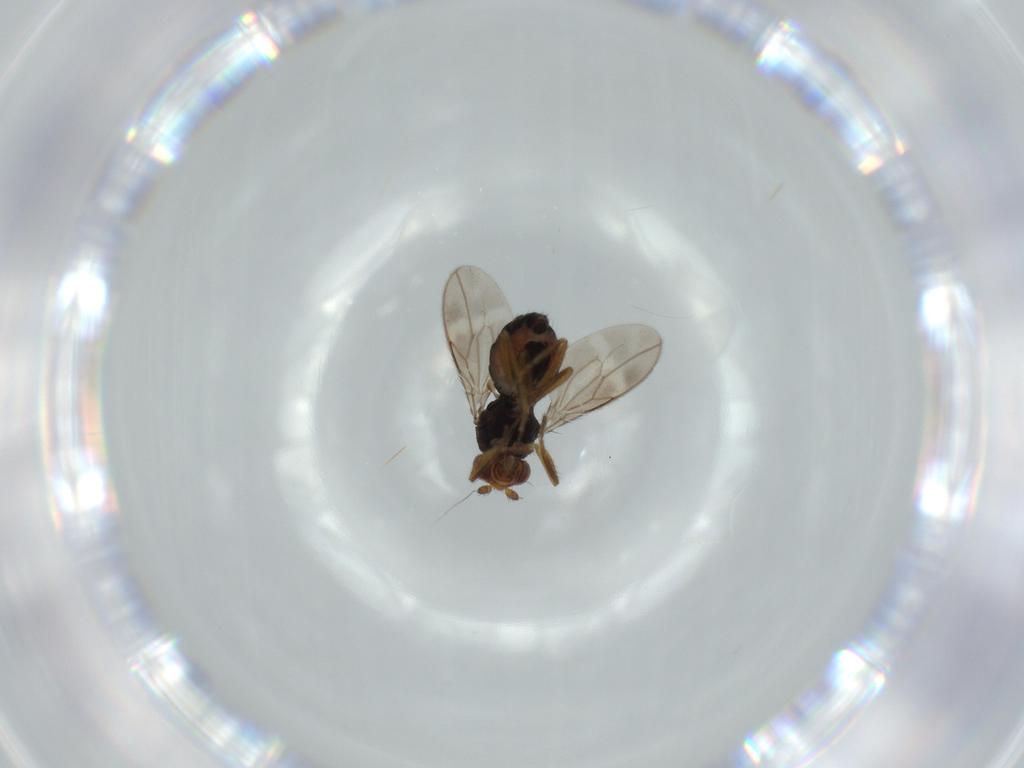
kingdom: Animalia
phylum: Arthropoda
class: Insecta
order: Diptera
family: Sphaeroceridae
